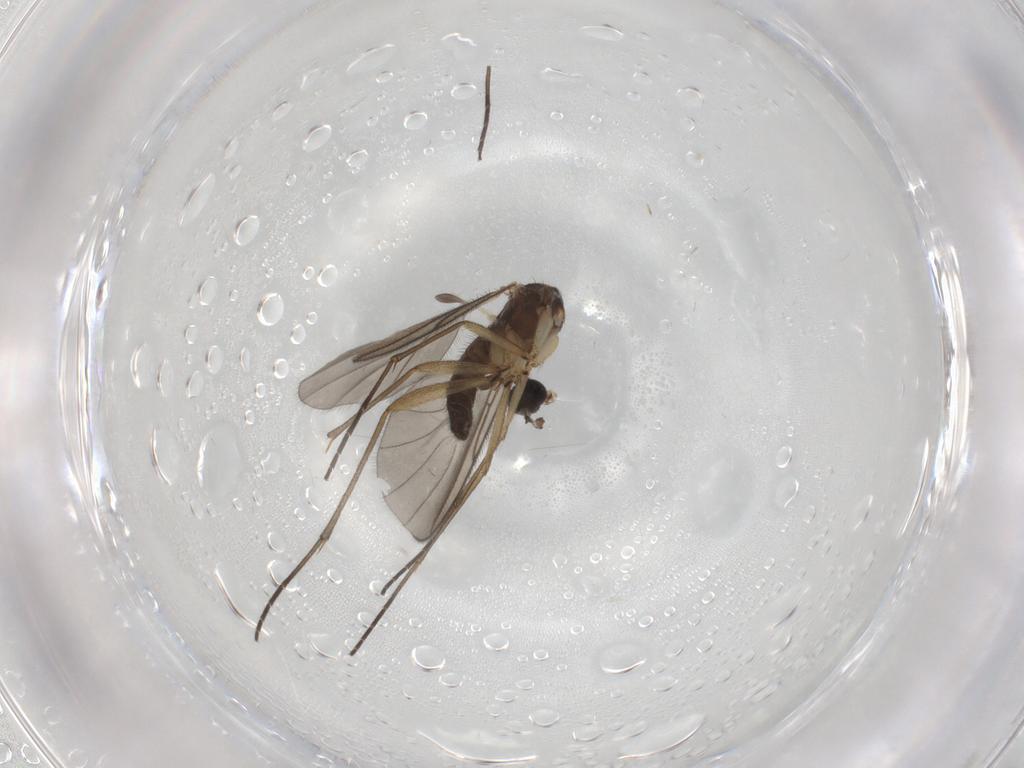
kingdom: Animalia
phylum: Arthropoda
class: Insecta
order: Diptera
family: Sciaridae
